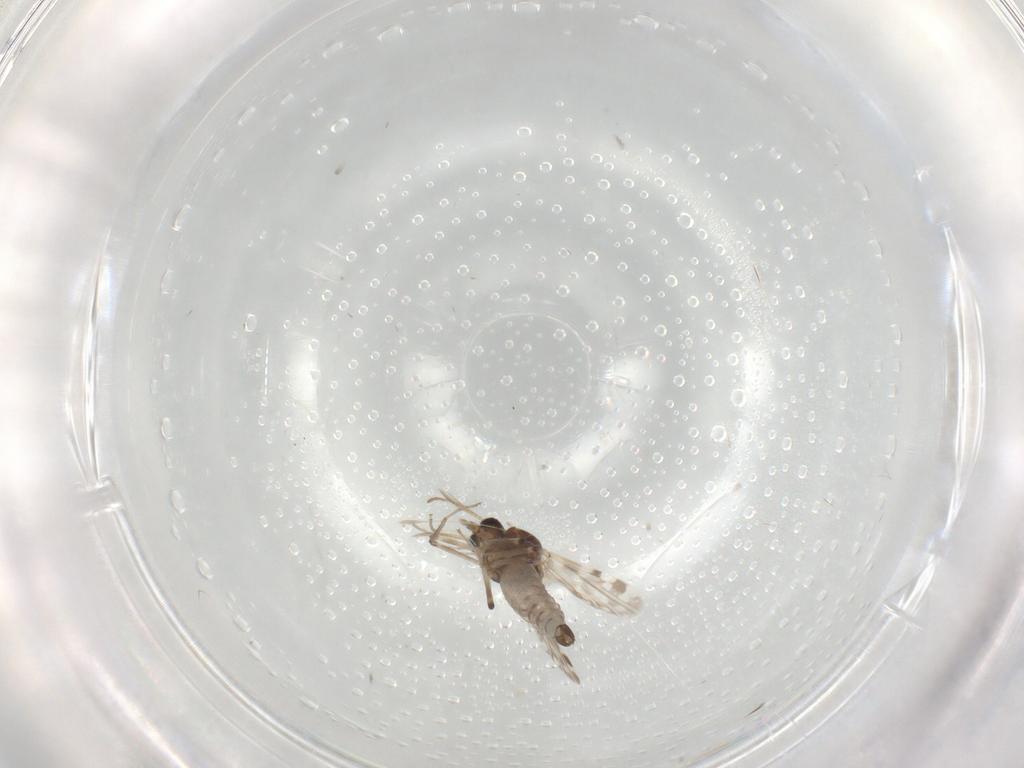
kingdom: Animalia
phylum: Arthropoda
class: Insecta
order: Diptera
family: Ceratopogonidae
